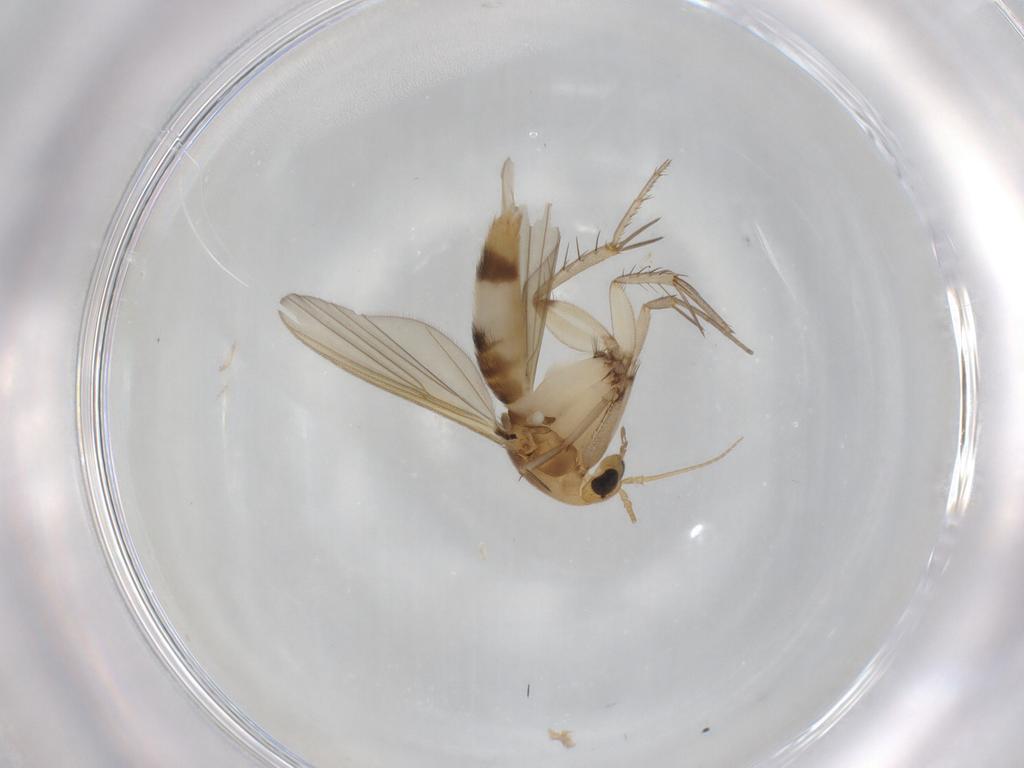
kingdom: Animalia
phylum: Arthropoda
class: Insecta
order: Diptera
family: Mycetophilidae
